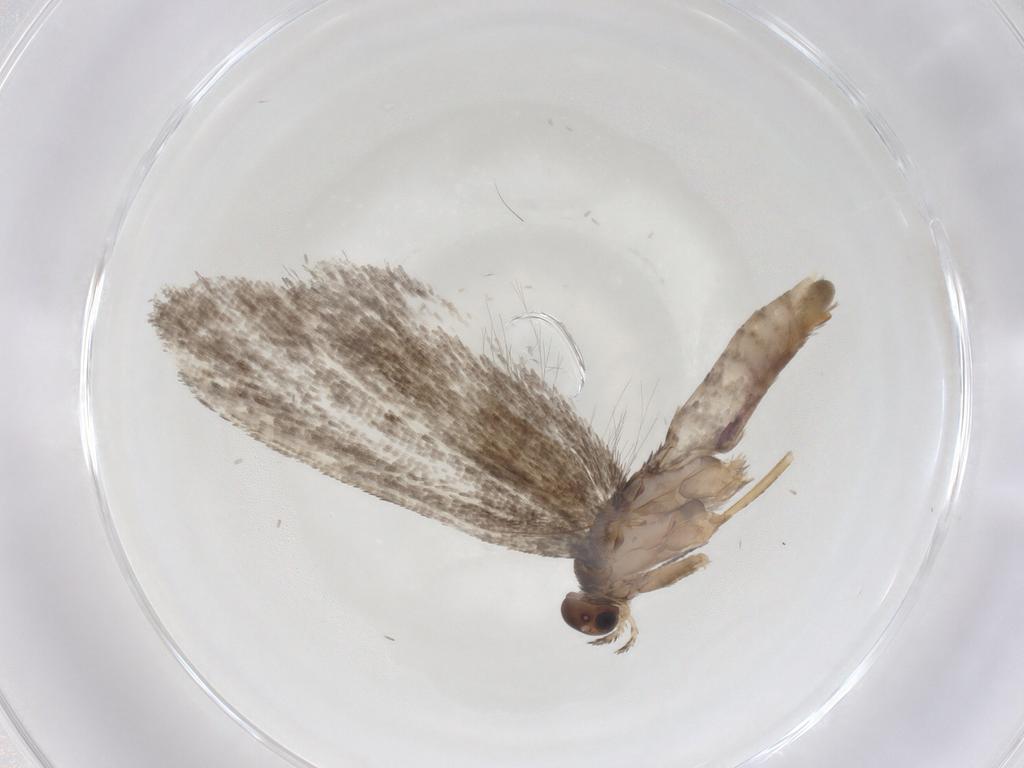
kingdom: Animalia
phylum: Arthropoda
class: Insecta
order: Lepidoptera
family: Glyphipterigidae
